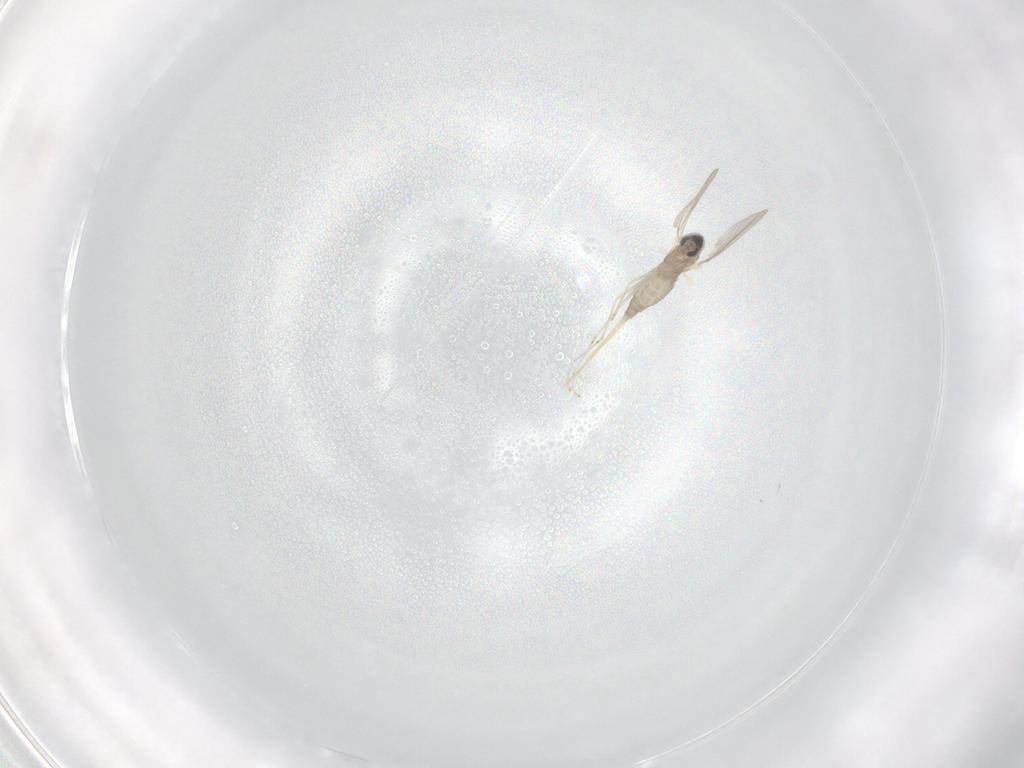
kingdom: Animalia
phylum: Arthropoda
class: Insecta
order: Diptera
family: Cecidomyiidae
